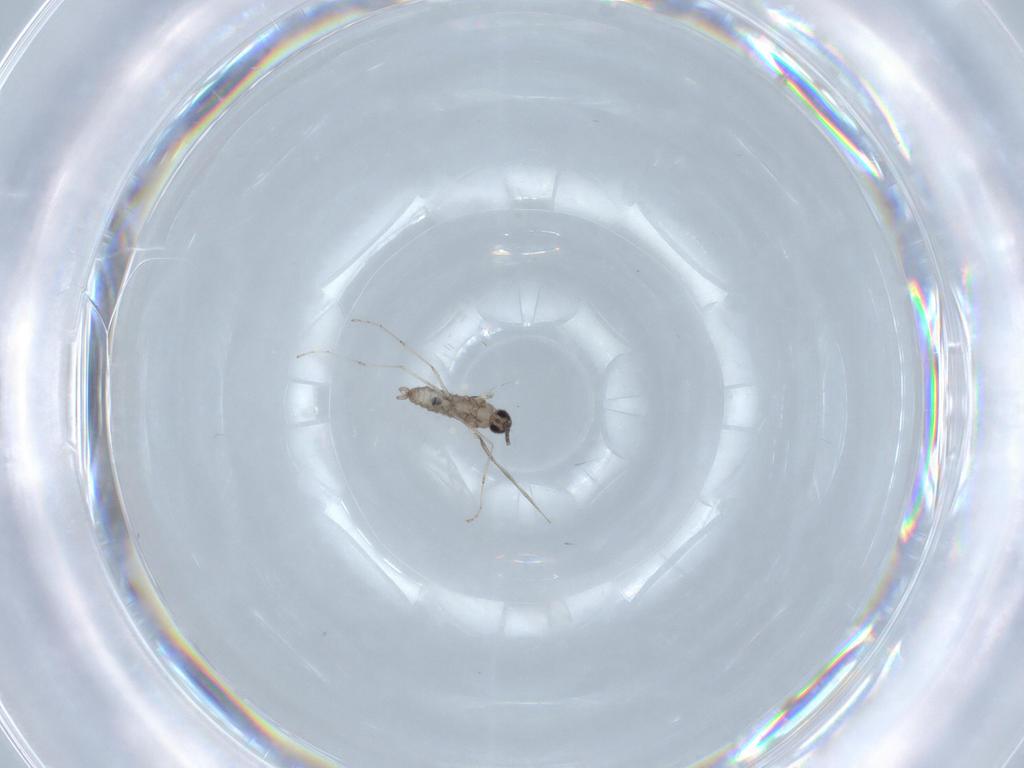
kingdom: Animalia
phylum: Arthropoda
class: Insecta
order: Diptera
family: Cecidomyiidae
